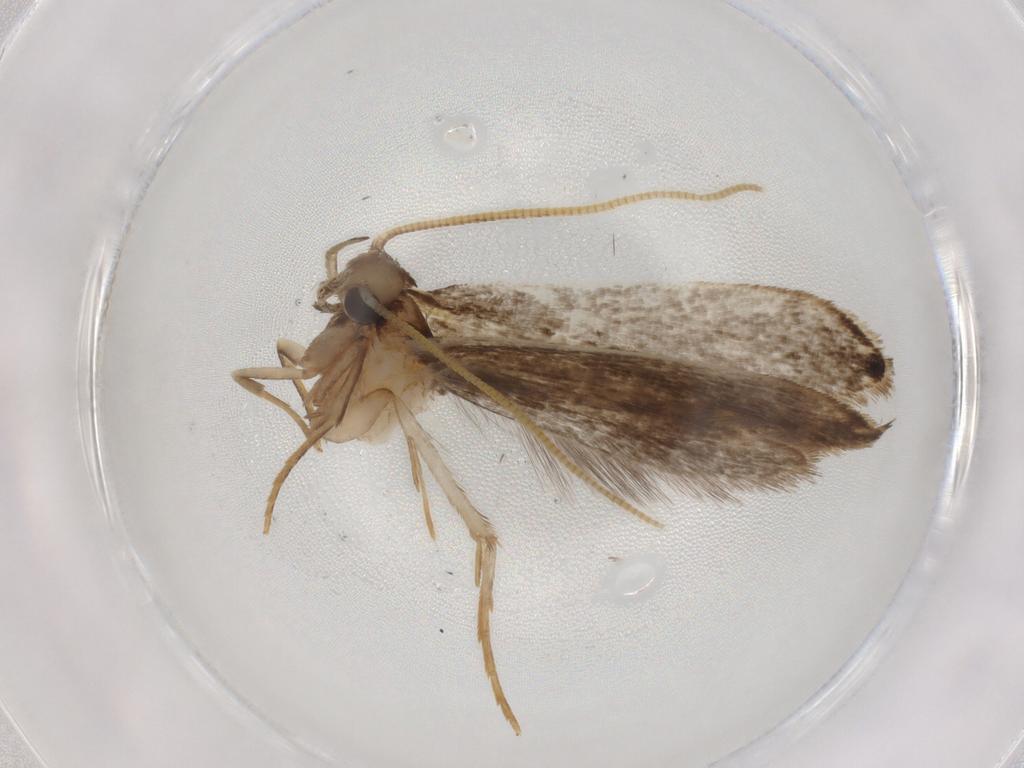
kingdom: Animalia
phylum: Arthropoda
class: Insecta
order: Lepidoptera
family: Tineidae
